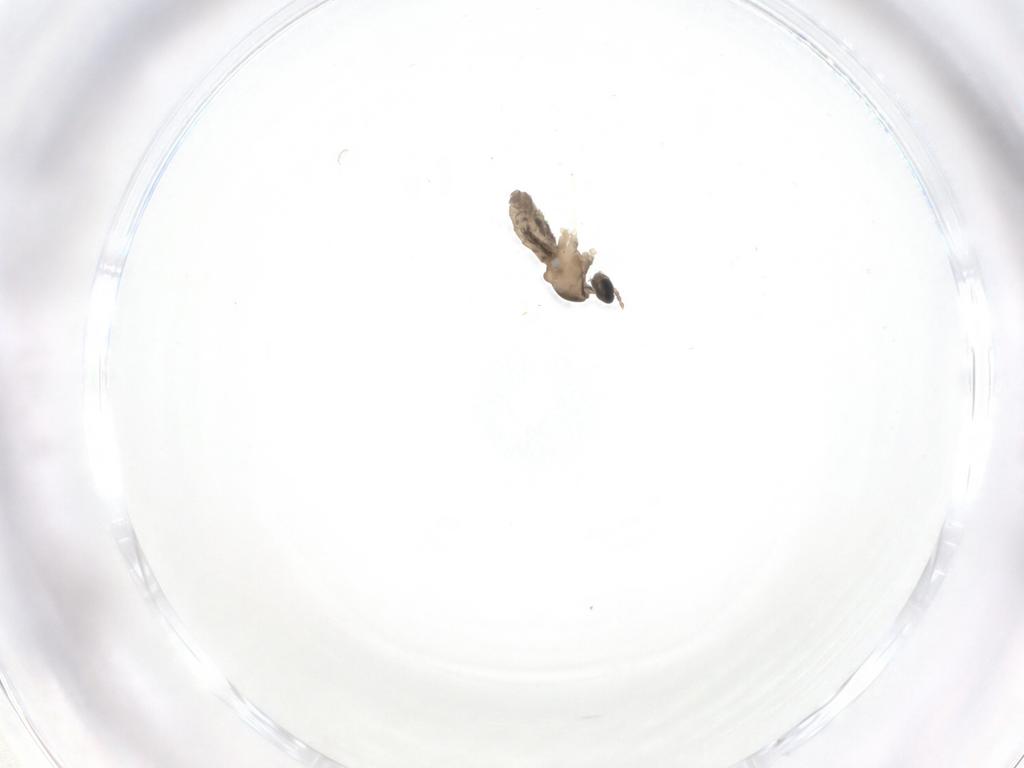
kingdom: Animalia
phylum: Arthropoda
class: Insecta
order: Diptera
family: Cecidomyiidae
